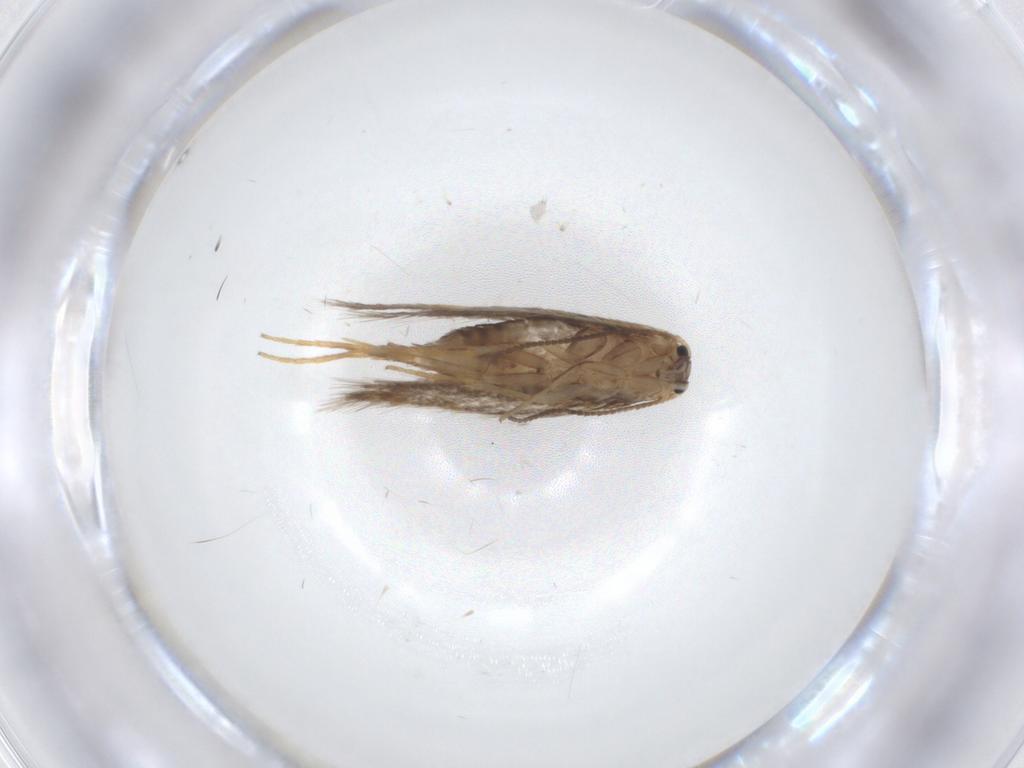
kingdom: Animalia
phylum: Arthropoda
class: Insecta
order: Lepidoptera
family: Nepticulidae
